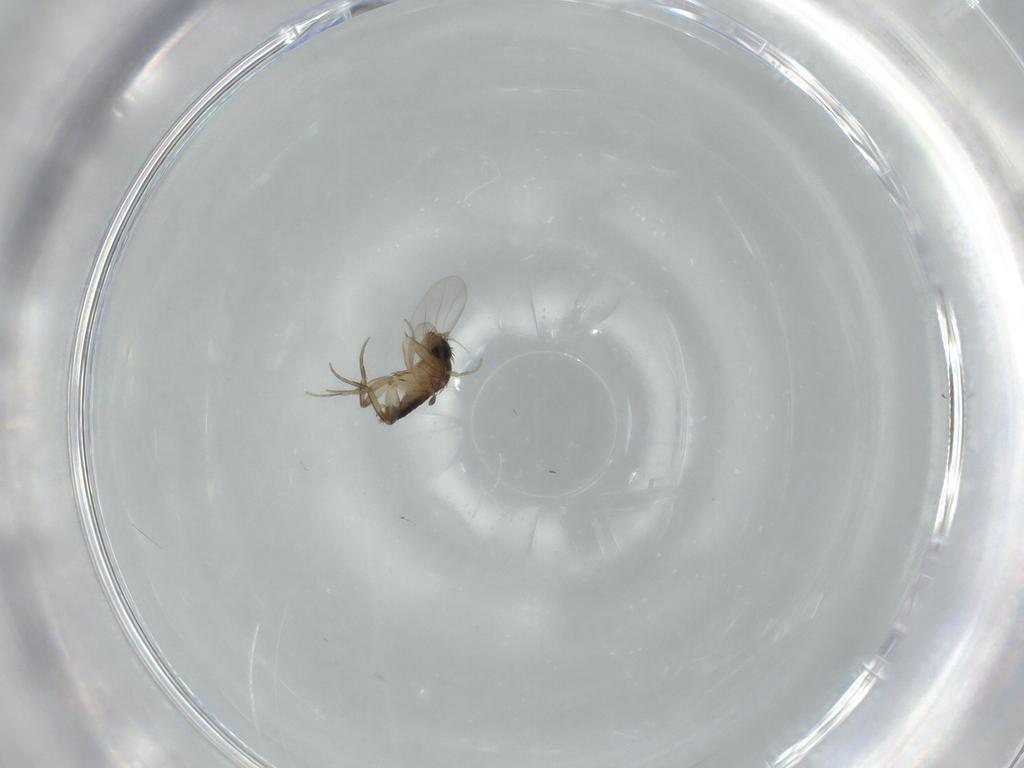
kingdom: Animalia
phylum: Arthropoda
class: Insecta
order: Diptera
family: Phoridae
